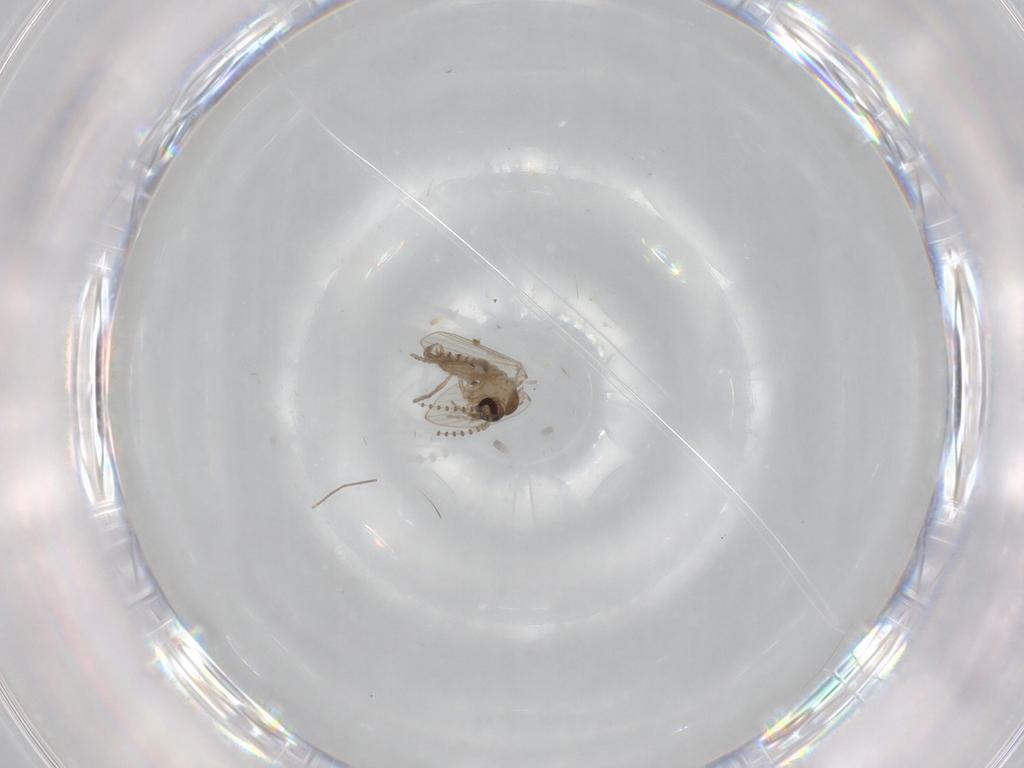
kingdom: Animalia
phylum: Arthropoda
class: Insecta
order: Diptera
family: Psychodidae
